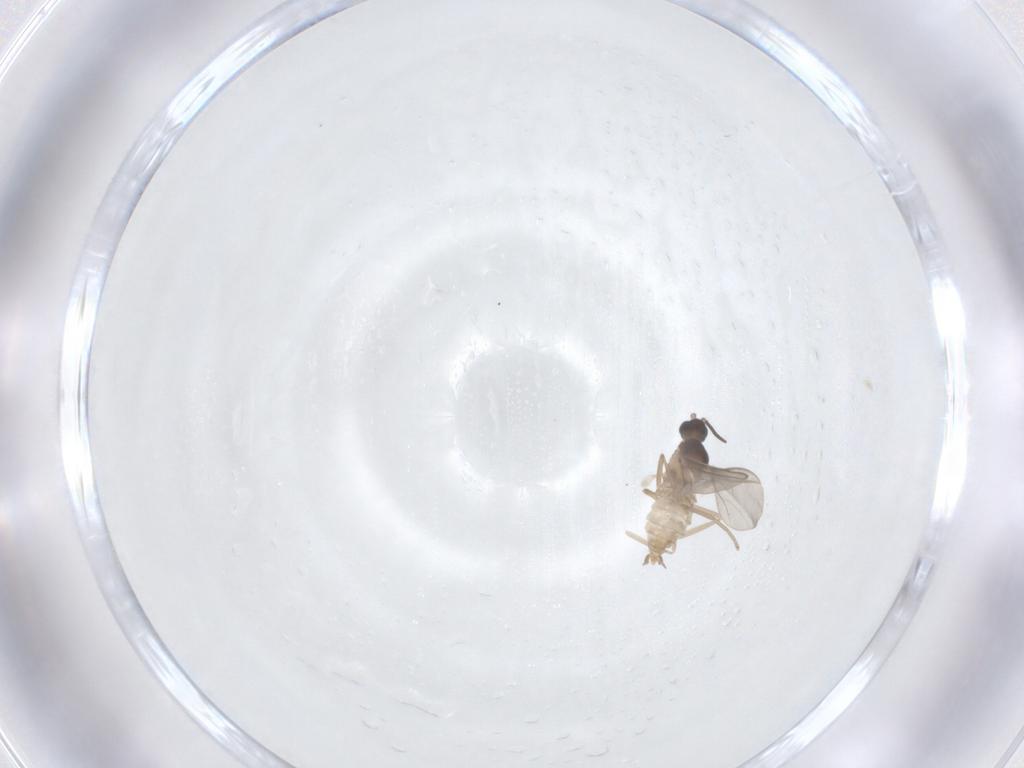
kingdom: Animalia
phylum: Arthropoda
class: Insecta
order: Diptera
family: Cecidomyiidae
